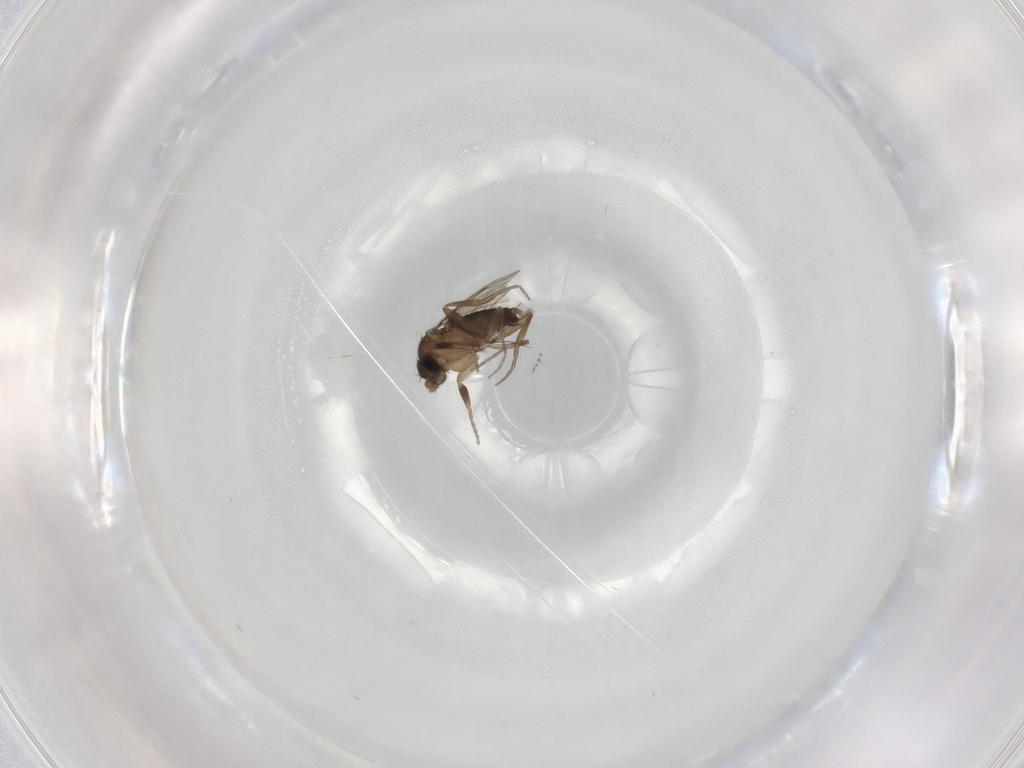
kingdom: Animalia
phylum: Arthropoda
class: Insecta
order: Diptera
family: Phoridae
